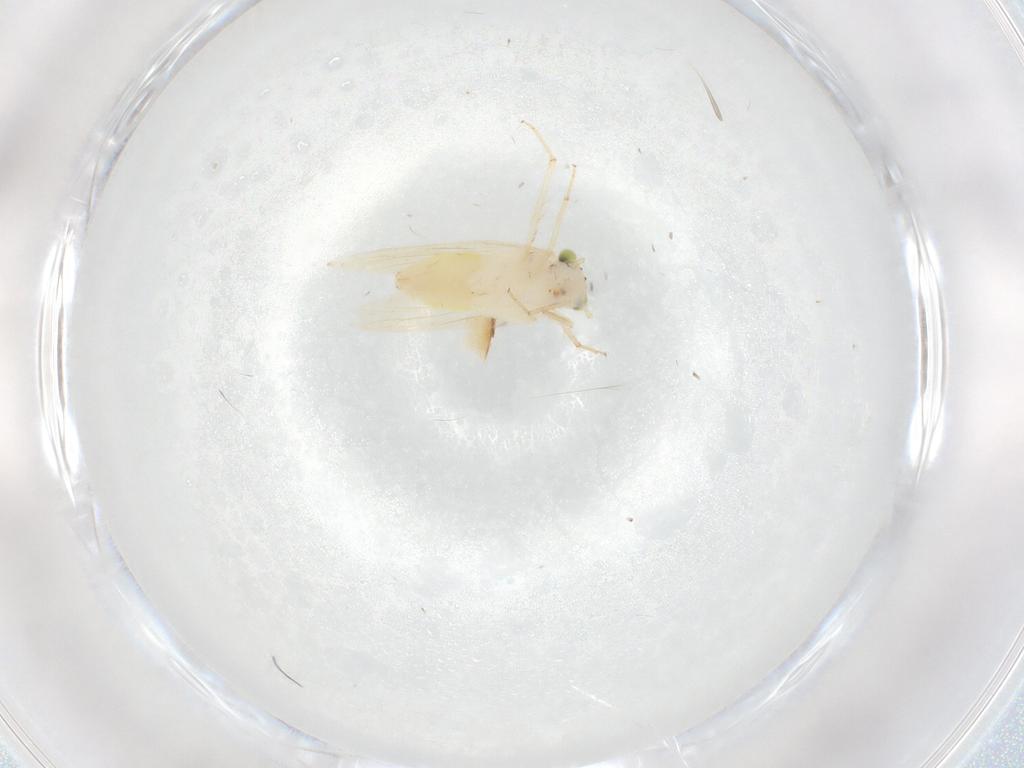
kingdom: Animalia
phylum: Arthropoda
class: Insecta
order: Psocodea
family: Lepidopsocidae
